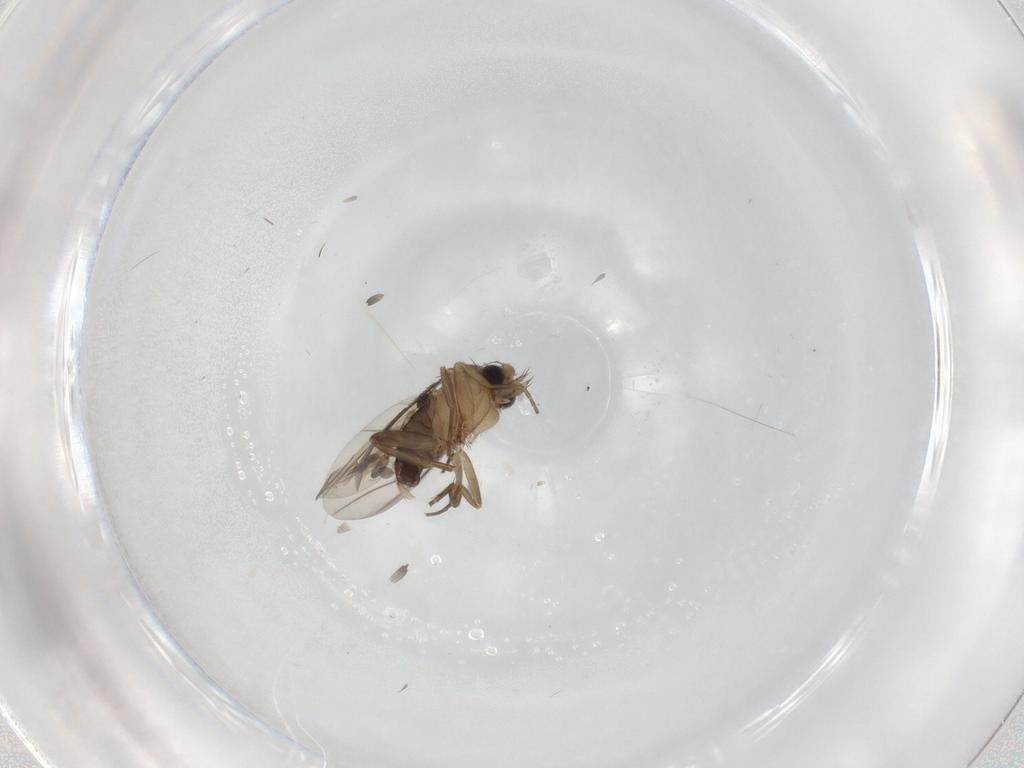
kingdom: Animalia
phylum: Arthropoda
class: Insecta
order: Diptera
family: Phoridae
